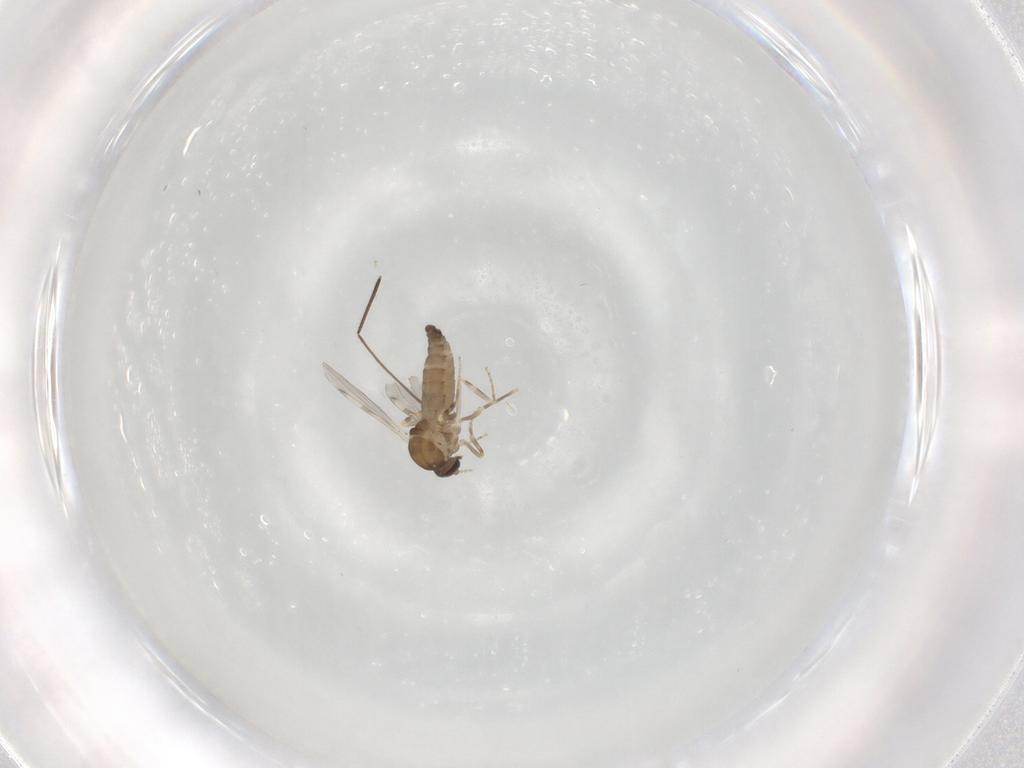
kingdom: Animalia
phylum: Arthropoda
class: Insecta
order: Diptera
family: Ceratopogonidae
